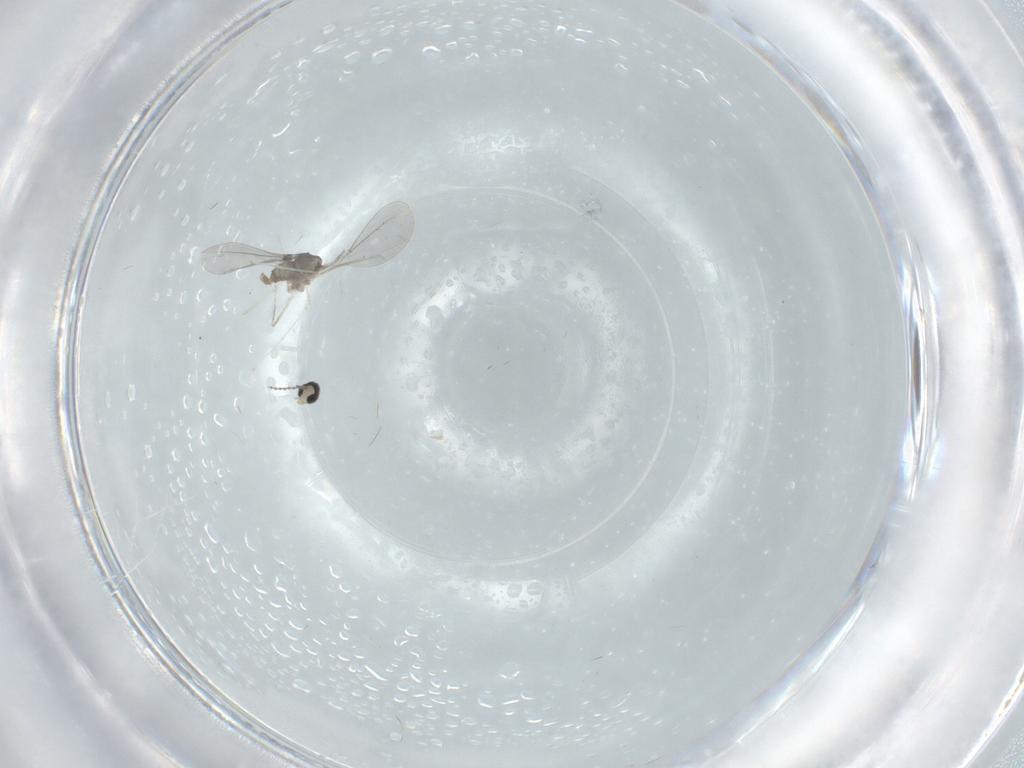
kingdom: Animalia
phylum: Arthropoda
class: Insecta
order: Diptera
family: Cecidomyiidae
